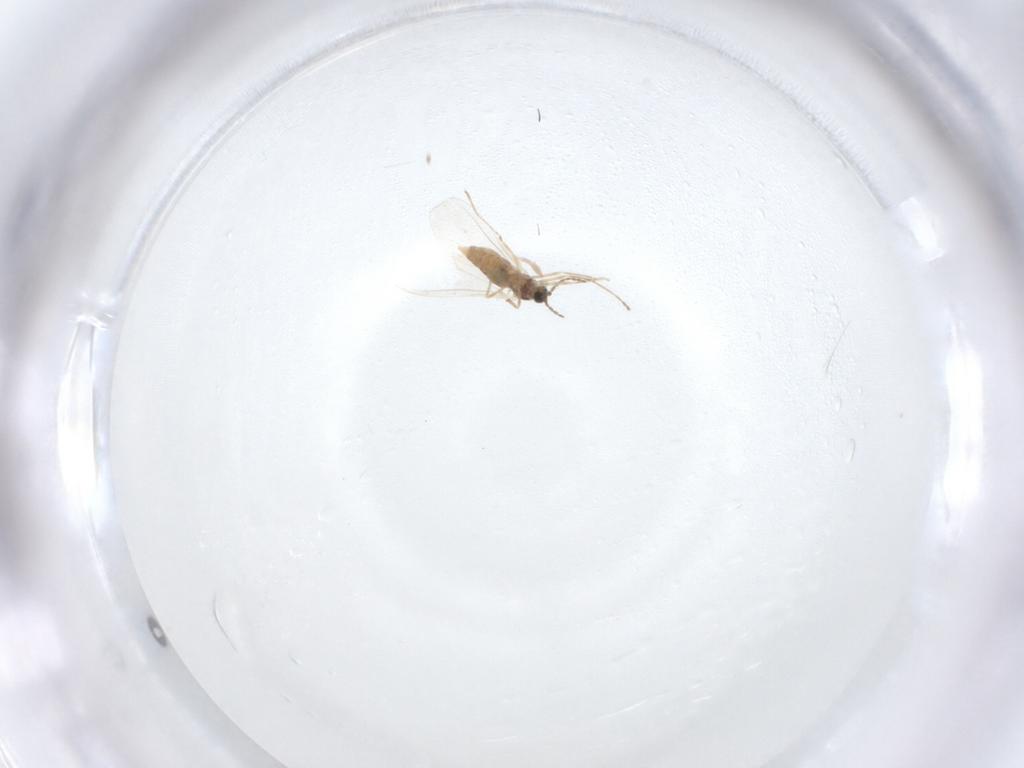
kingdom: Animalia
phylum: Arthropoda
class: Insecta
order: Diptera
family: Cecidomyiidae
